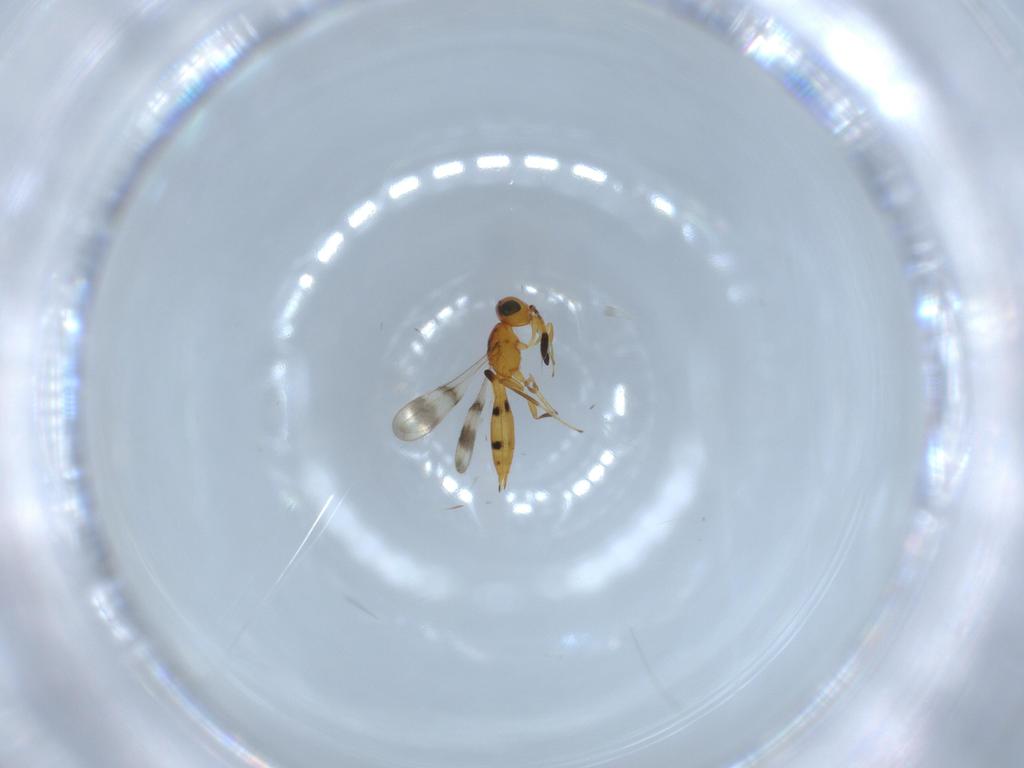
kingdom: Animalia
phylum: Arthropoda
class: Insecta
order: Hymenoptera
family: Scelionidae
